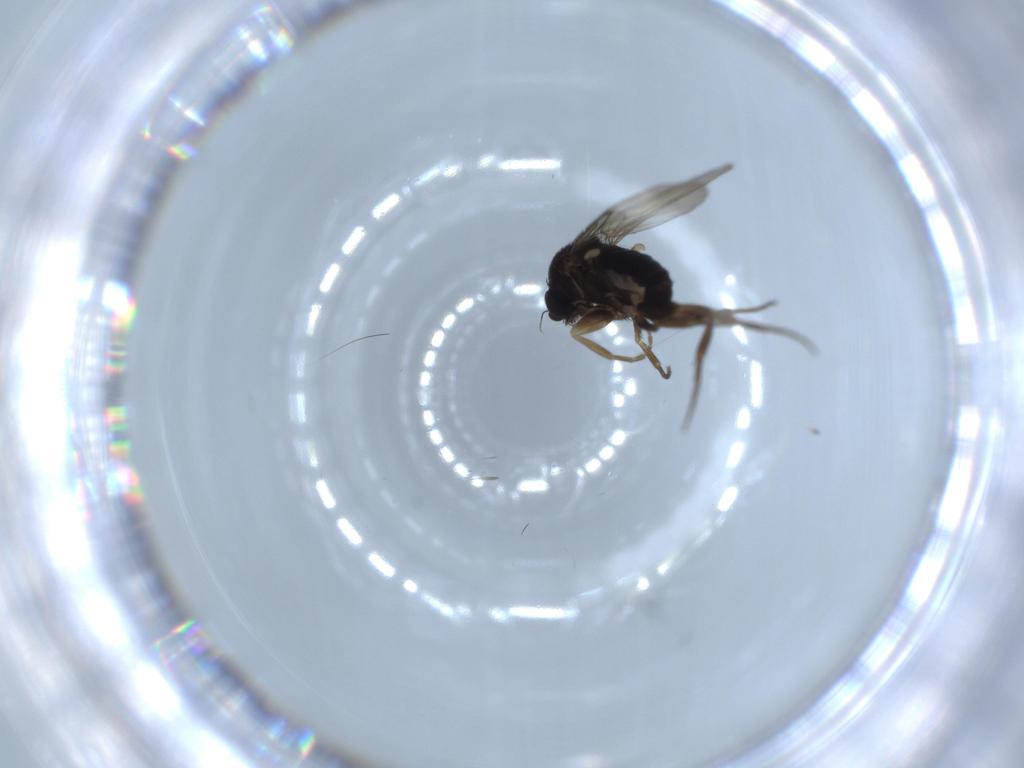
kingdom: Animalia
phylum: Arthropoda
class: Insecta
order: Diptera
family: Phoridae
